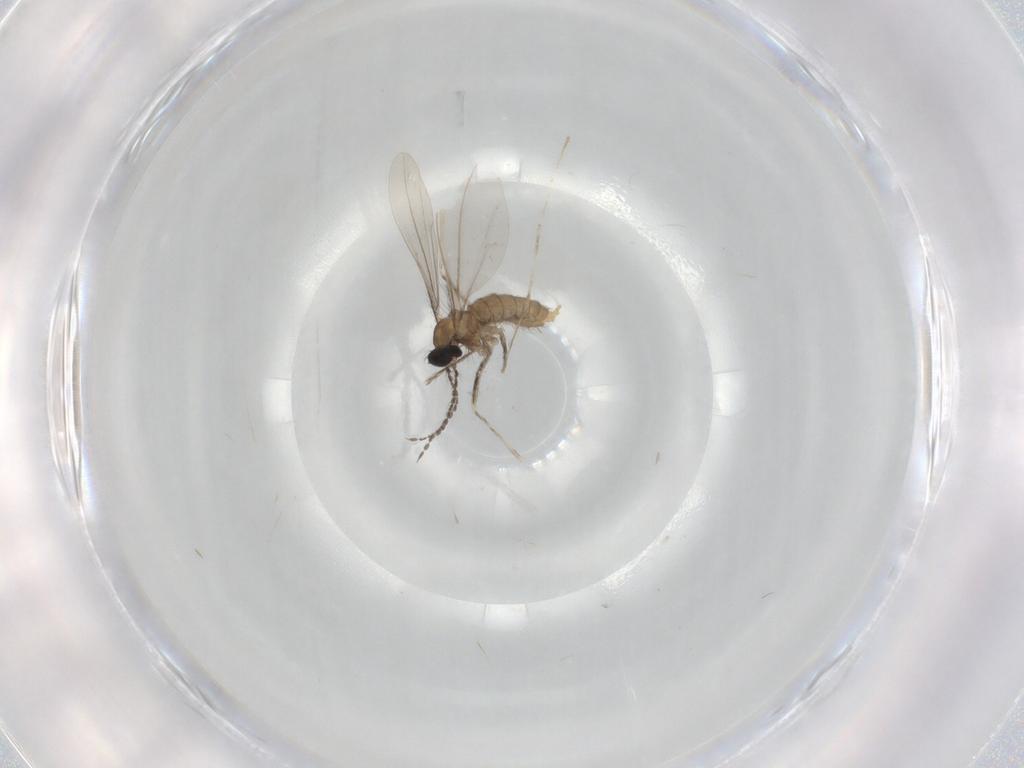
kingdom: Animalia
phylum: Arthropoda
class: Insecta
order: Diptera
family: Cecidomyiidae
